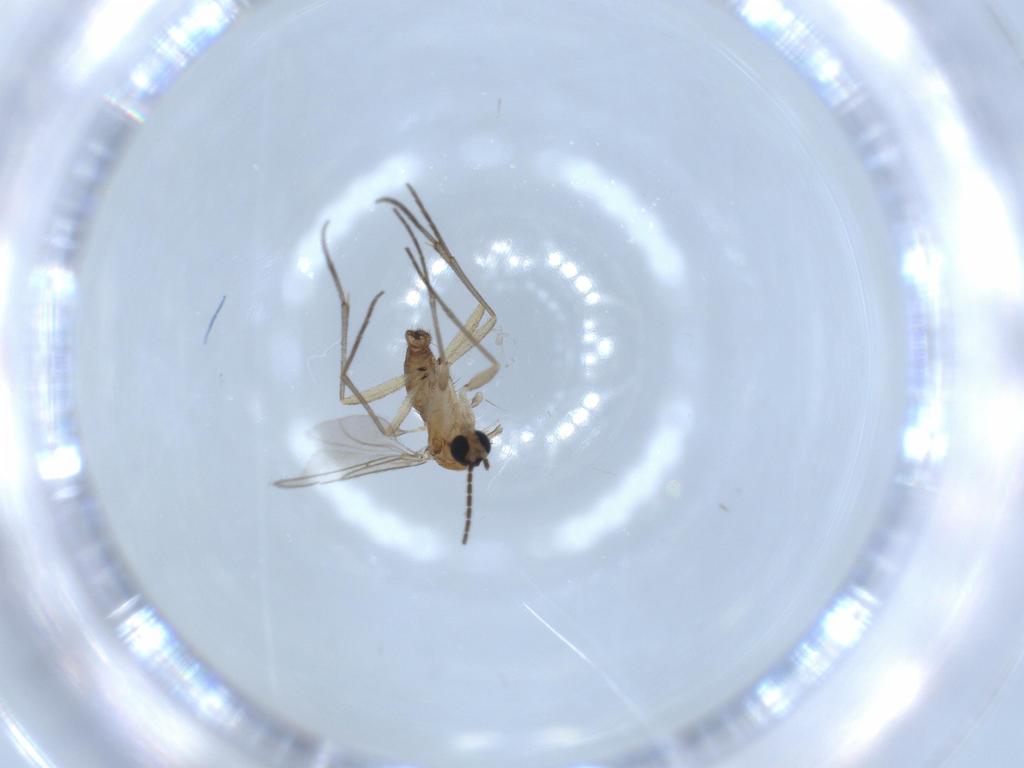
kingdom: Animalia
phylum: Arthropoda
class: Insecta
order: Diptera
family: Sciaridae
